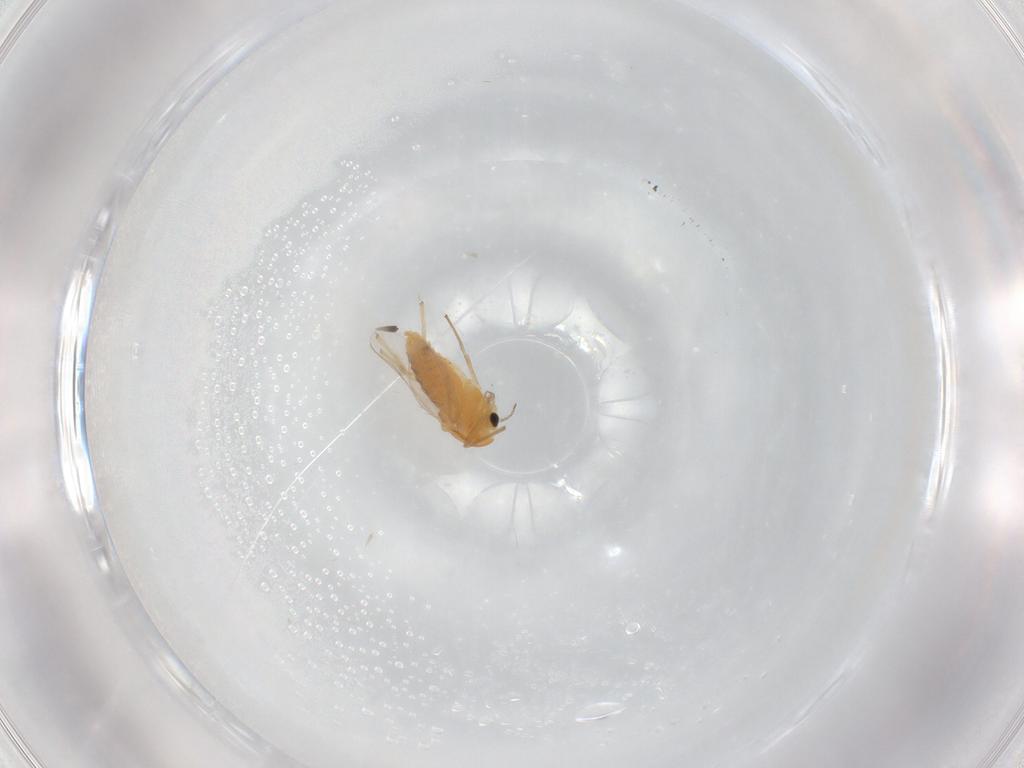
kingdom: Animalia
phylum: Arthropoda
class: Insecta
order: Diptera
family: Chironomidae
